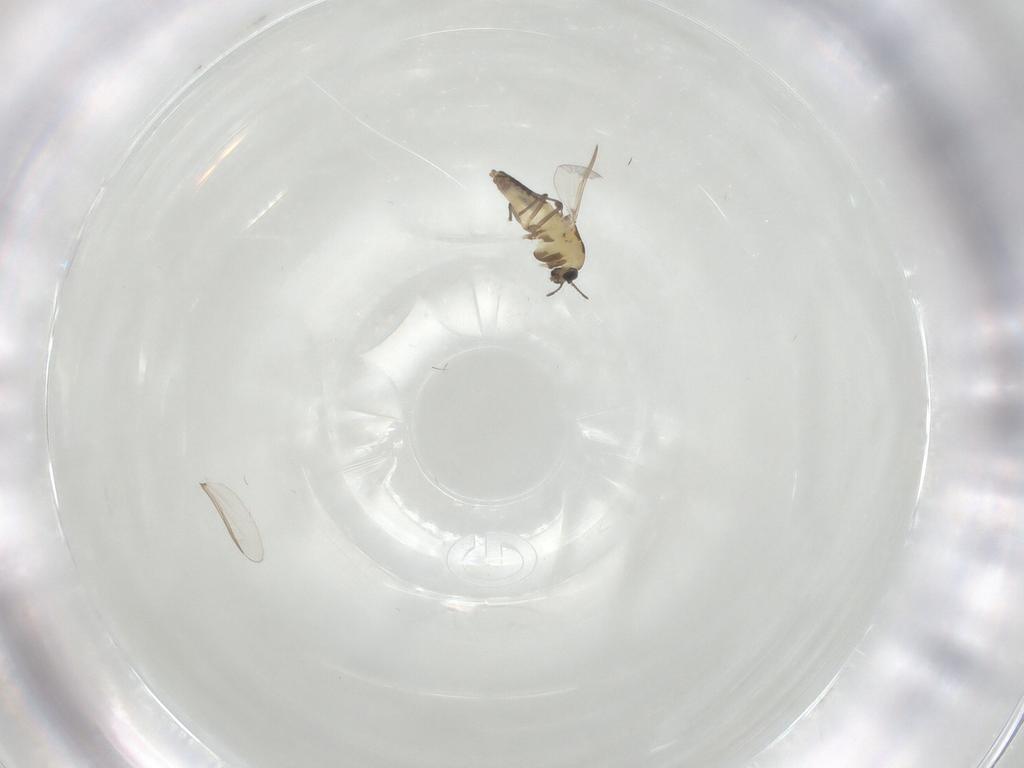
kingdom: Animalia
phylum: Arthropoda
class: Insecta
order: Diptera
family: Chironomidae
